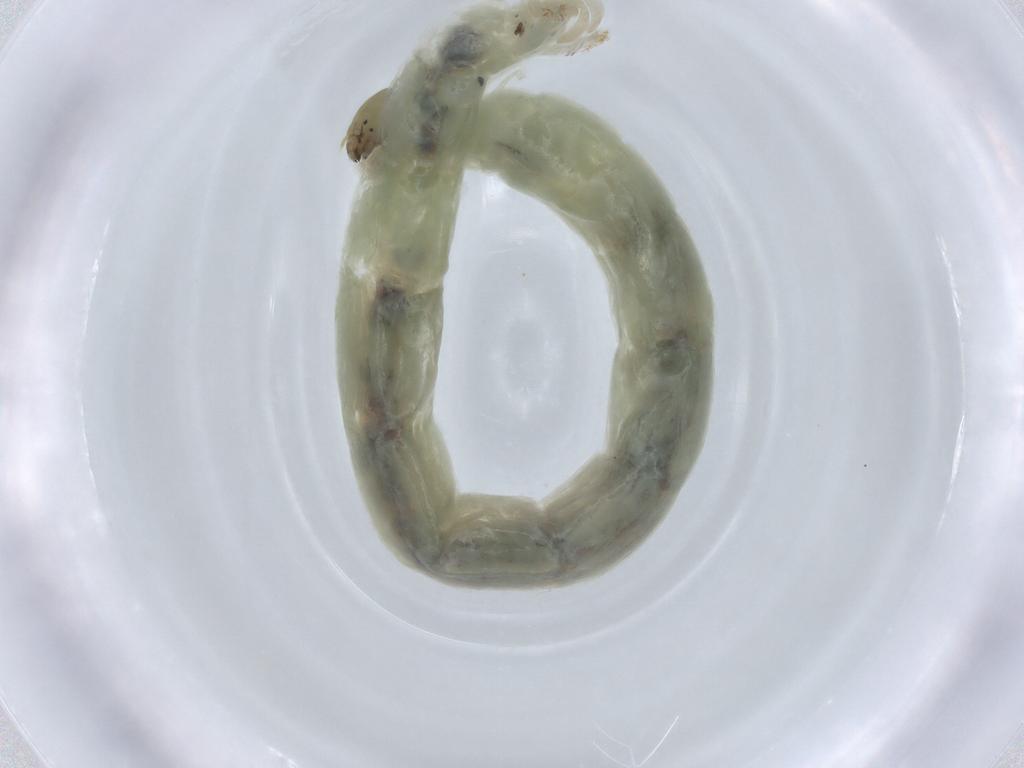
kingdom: Animalia
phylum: Arthropoda
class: Insecta
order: Diptera
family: Chironomidae
